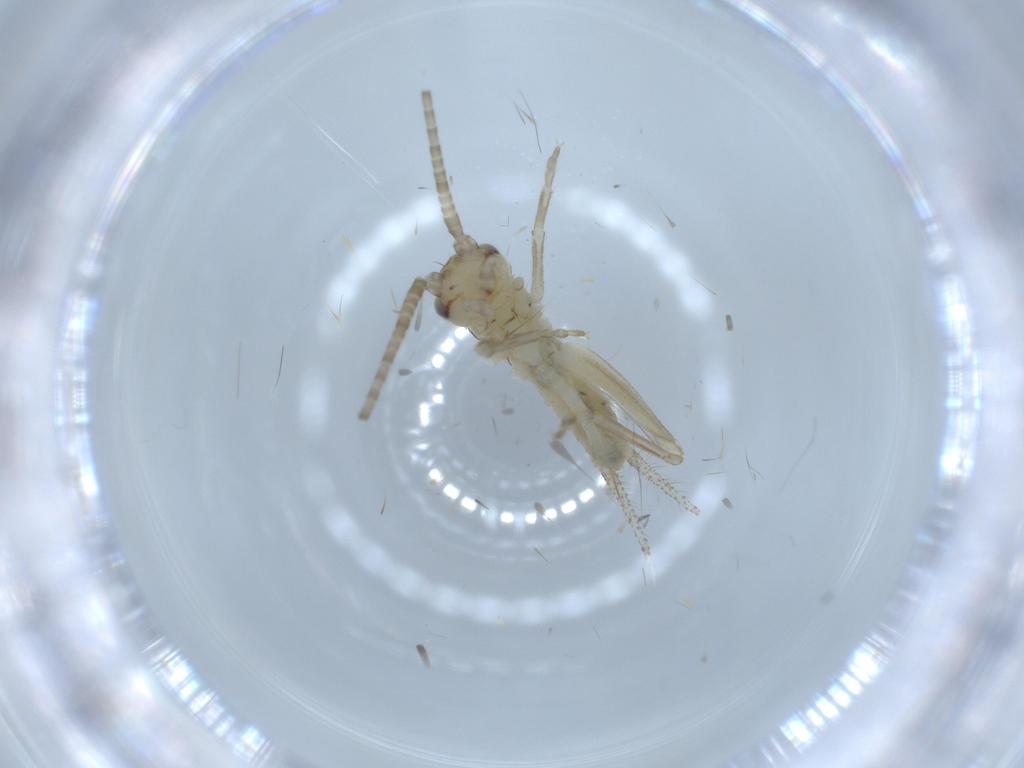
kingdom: Animalia
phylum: Arthropoda
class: Insecta
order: Orthoptera
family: Gryllidae
